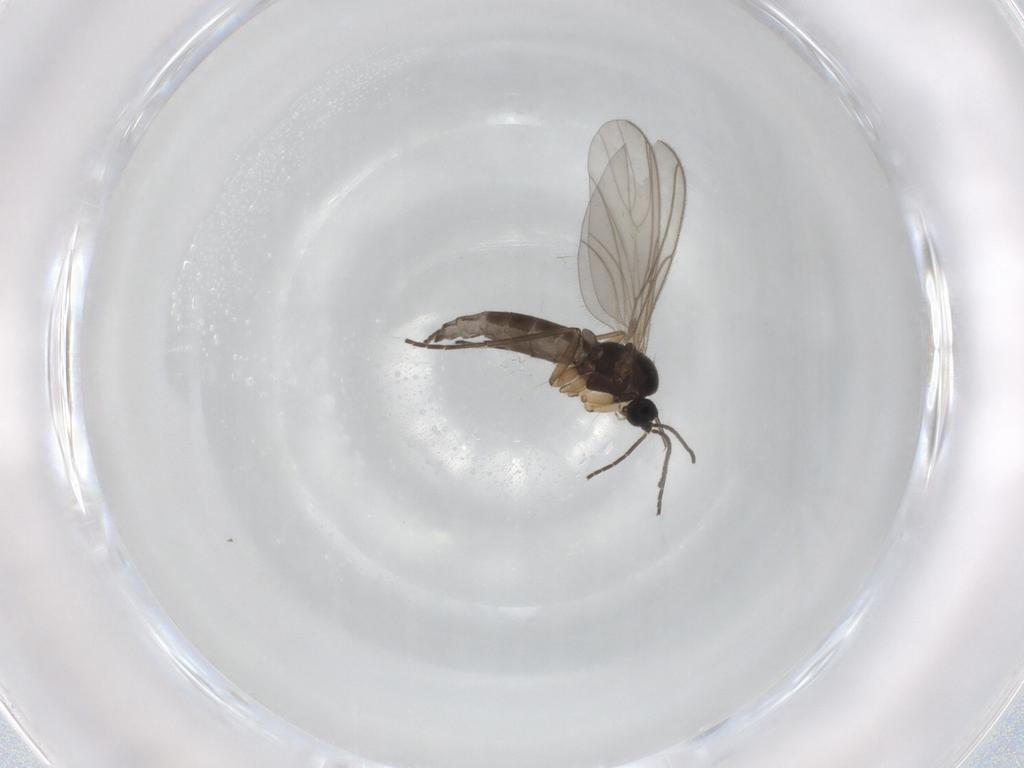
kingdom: Animalia
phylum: Arthropoda
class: Insecta
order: Diptera
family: Sciaridae
